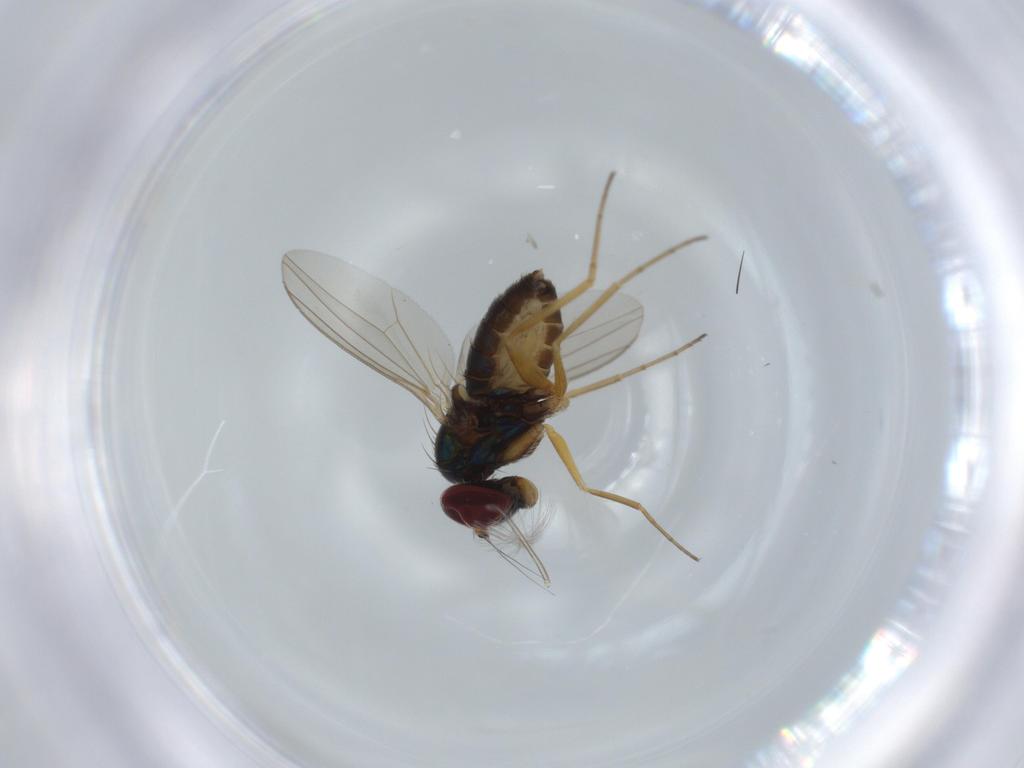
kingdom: Animalia
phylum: Arthropoda
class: Insecta
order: Diptera
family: Dolichopodidae
